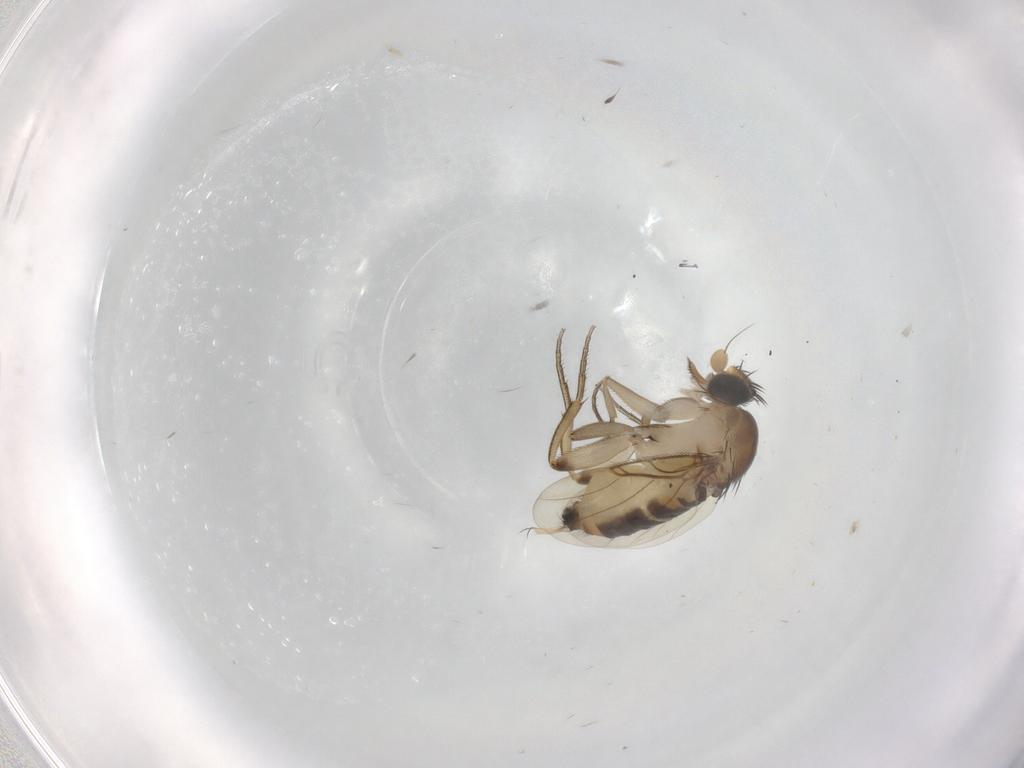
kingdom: Animalia
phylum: Arthropoda
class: Insecta
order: Diptera
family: Phoridae
